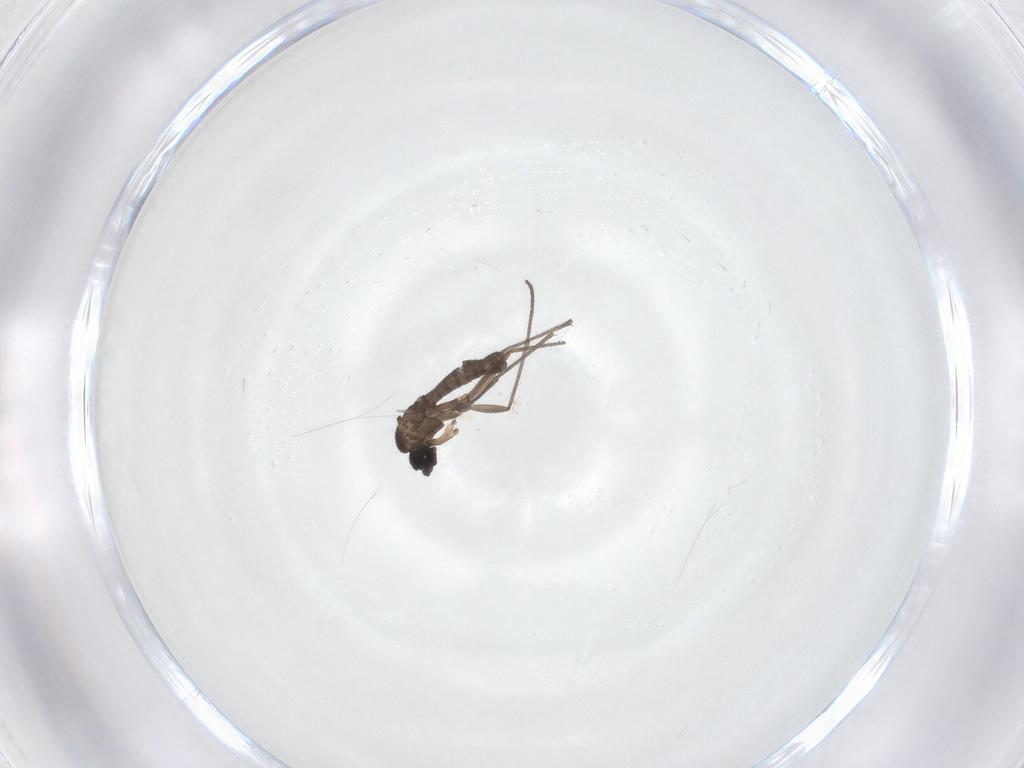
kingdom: Animalia
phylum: Arthropoda
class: Insecta
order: Diptera
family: Sciaridae
